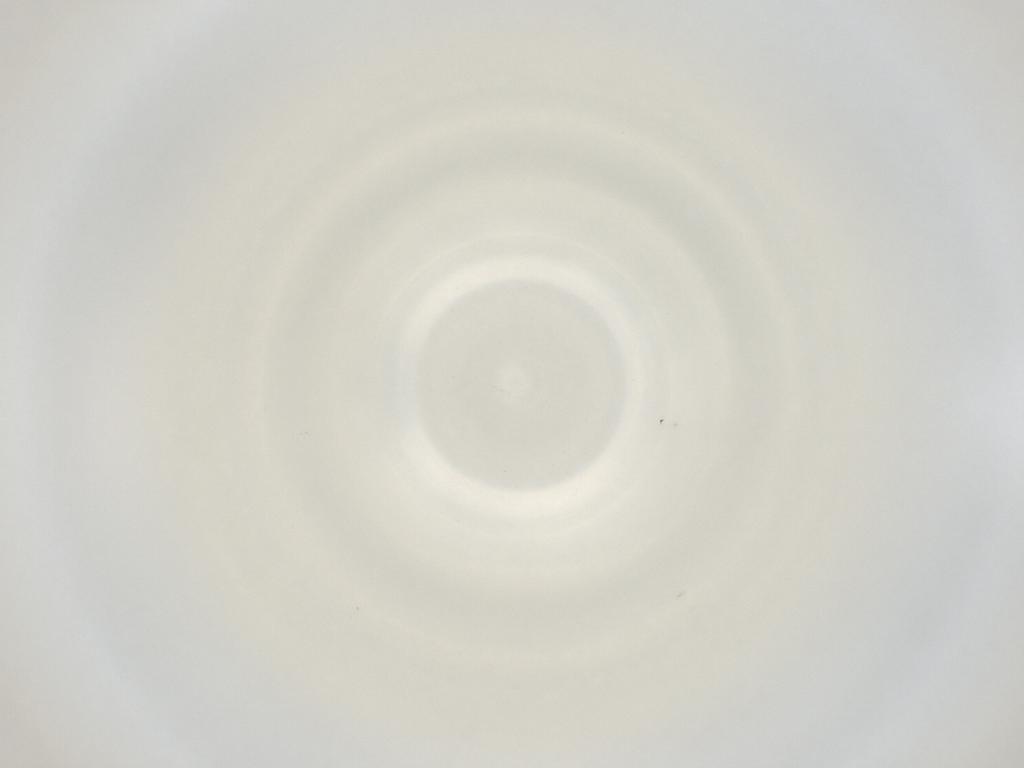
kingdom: Animalia
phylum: Arthropoda
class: Insecta
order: Diptera
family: Cecidomyiidae
